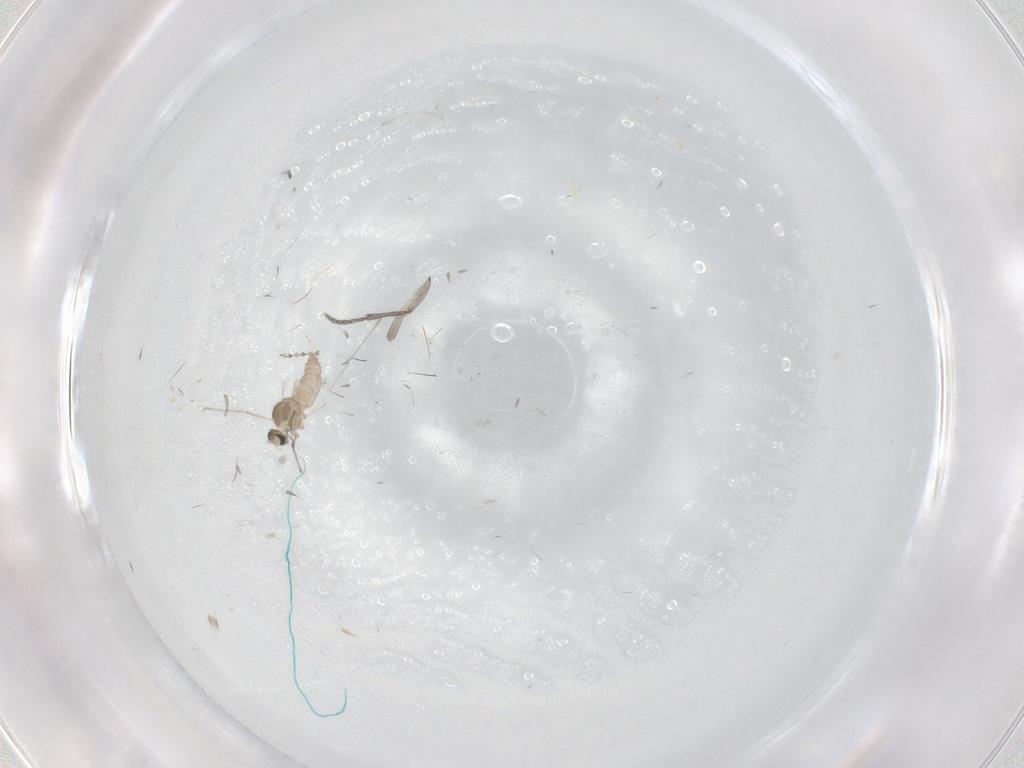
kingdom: Animalia
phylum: Arthropoda
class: Insecta
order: Diptera
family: Cecidomyiidae
